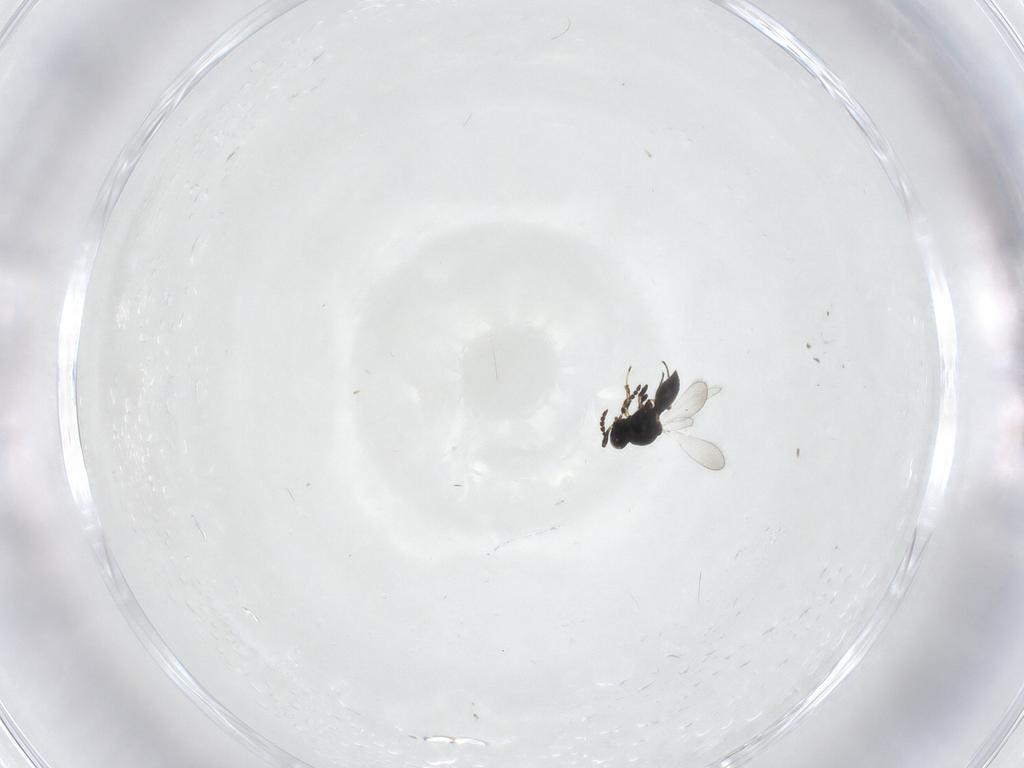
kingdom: Animalia
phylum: Arthropoda
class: Insecta
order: Hymenoptera
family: Platygastridae
